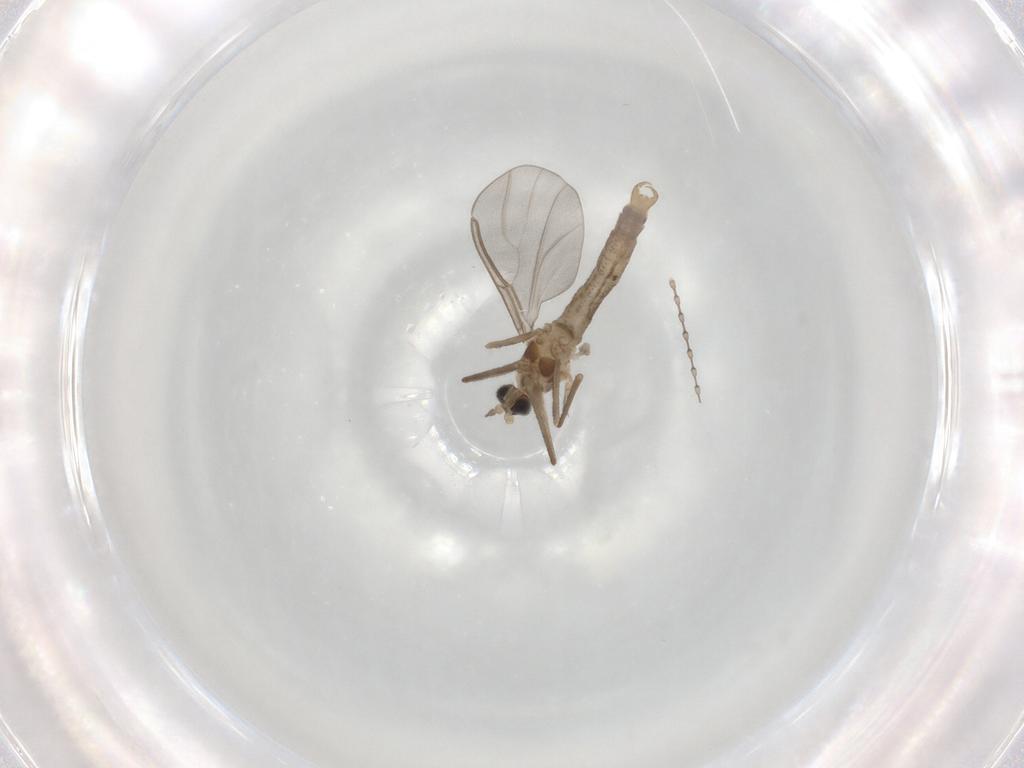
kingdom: Animalia
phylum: Arthropoda
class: Insecta
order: Diptera
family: Cecidomyiidae
